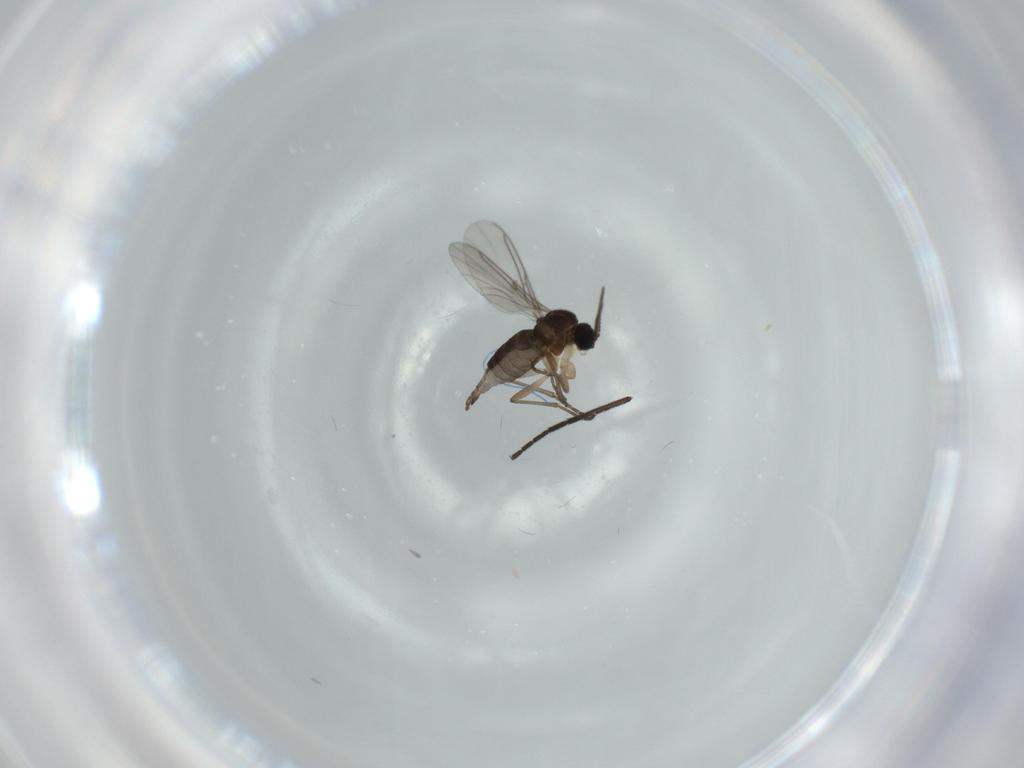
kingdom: Animalia
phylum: Arthropoda
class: Insecta
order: Diptera
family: Sciaridae
